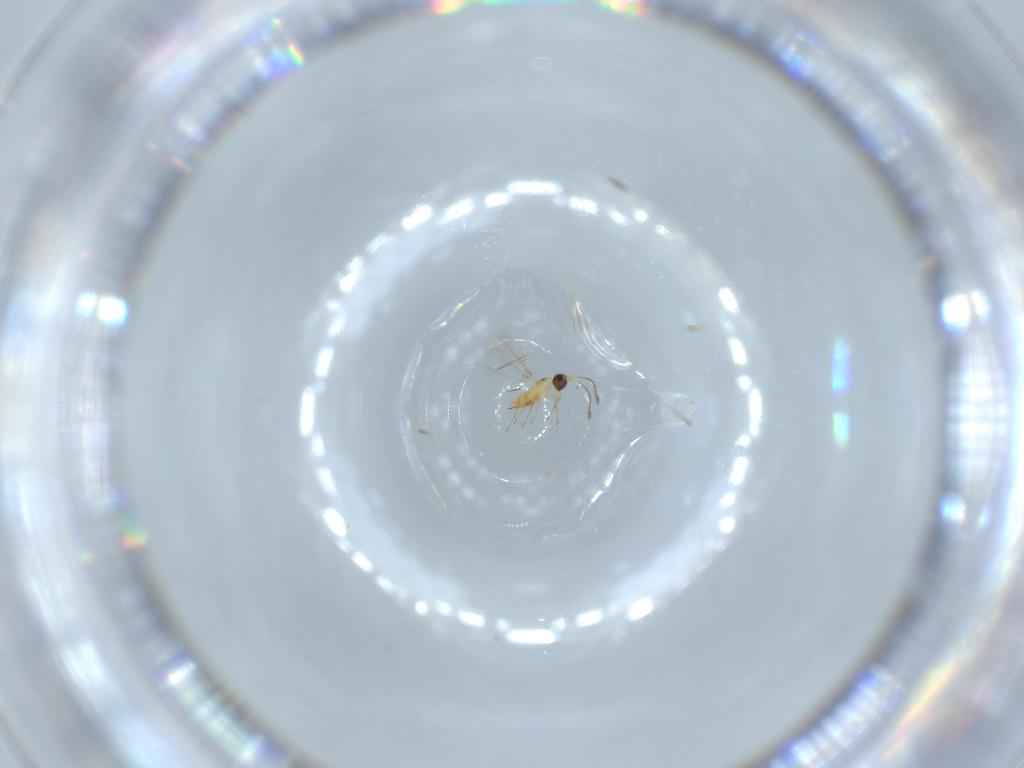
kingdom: Animalia
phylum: Arthropoda
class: Insecta
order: Hymenoptera
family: Mymaridae
